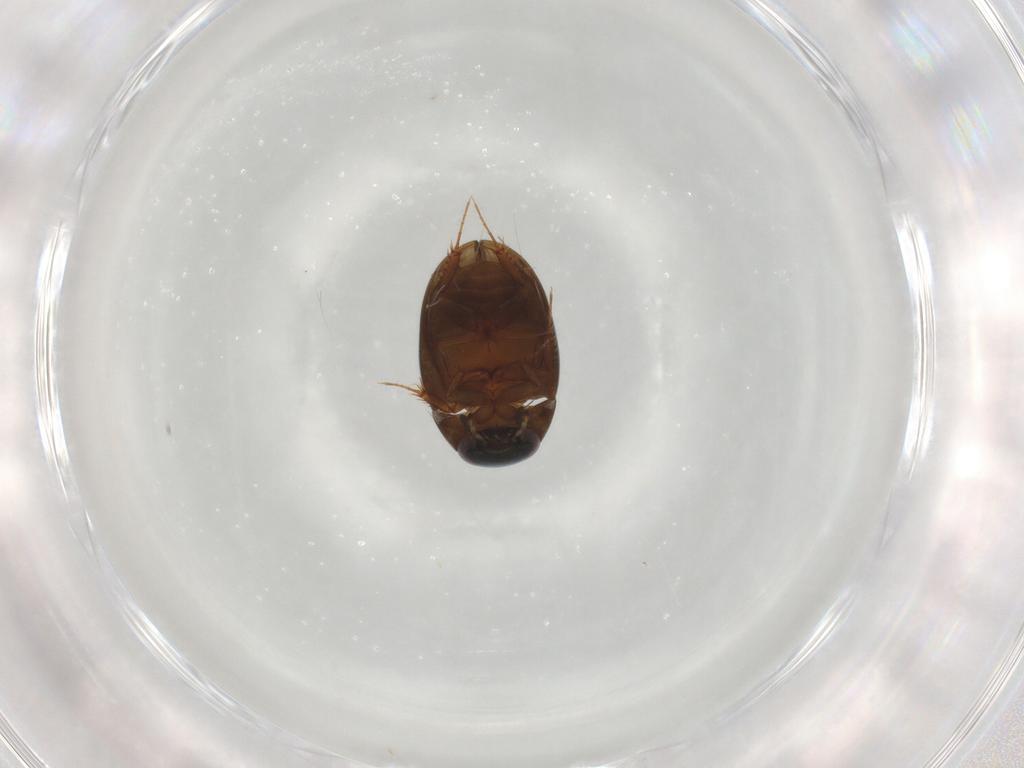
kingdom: Animalia
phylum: Arthropoda
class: Insecta
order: Coleoptera
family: Hydrophilidae
